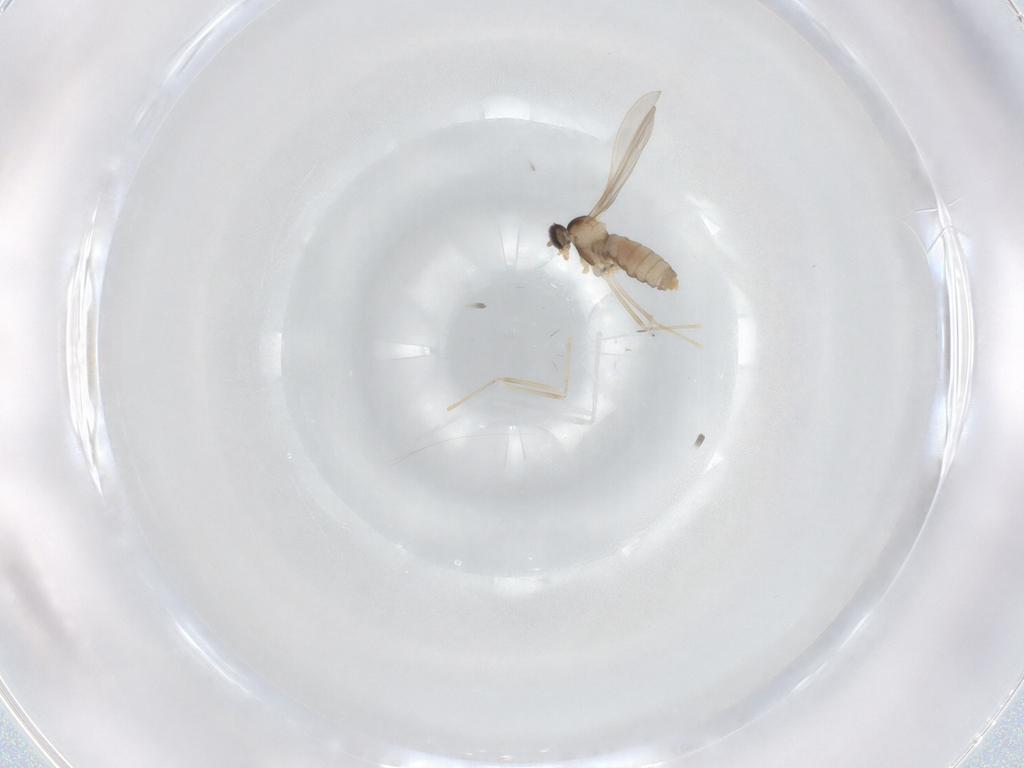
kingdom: Animalia
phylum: Arthropoda
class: Insecta
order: Diptera
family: Cecidomyiidae
